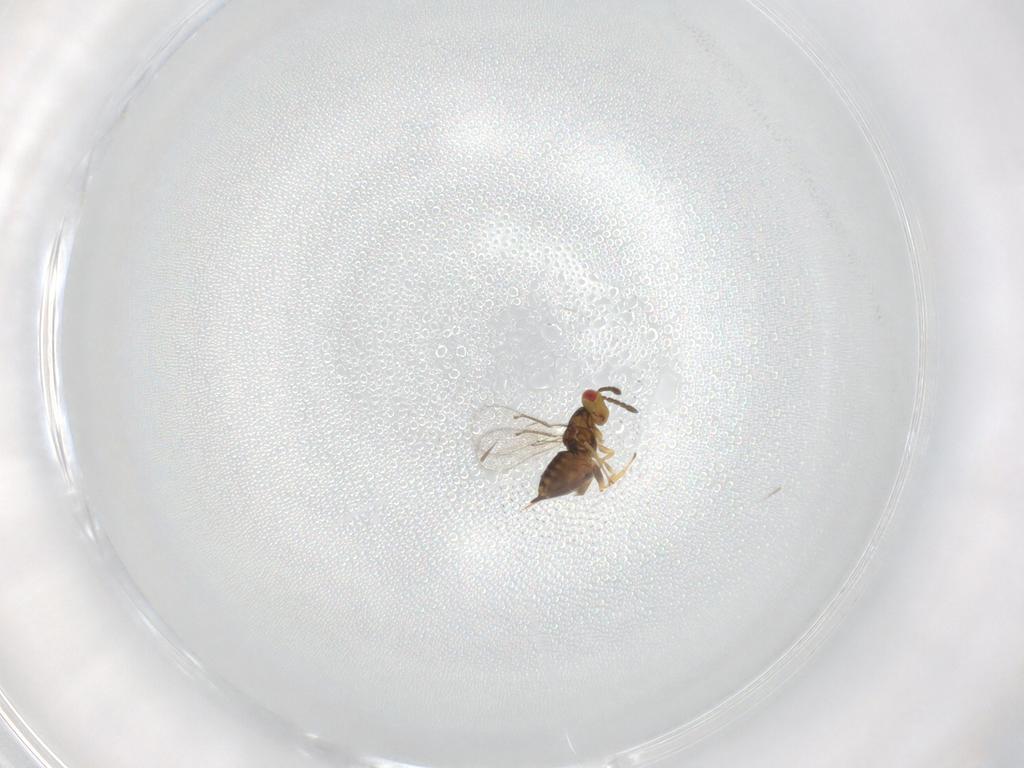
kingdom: Animalia
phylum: Arthropoda
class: Insecta
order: Hymenoptera
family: Eulophidae
